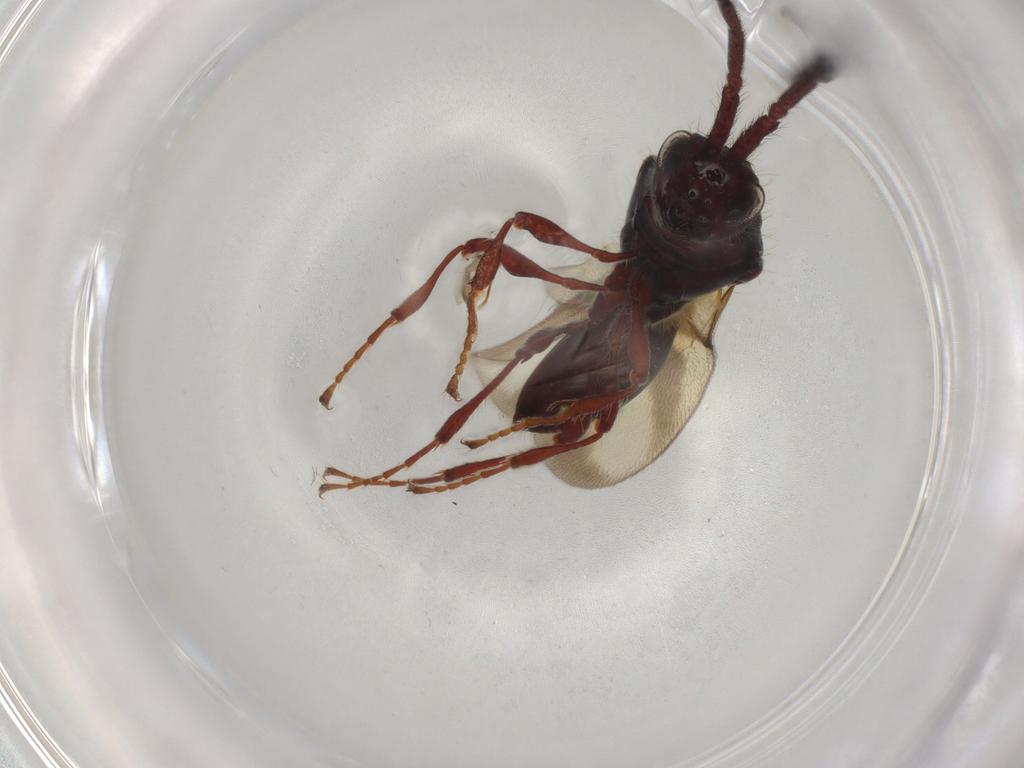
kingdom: Animalia
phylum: Arthropoda
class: Insecta
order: Hymenoptera
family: Diapriidae
